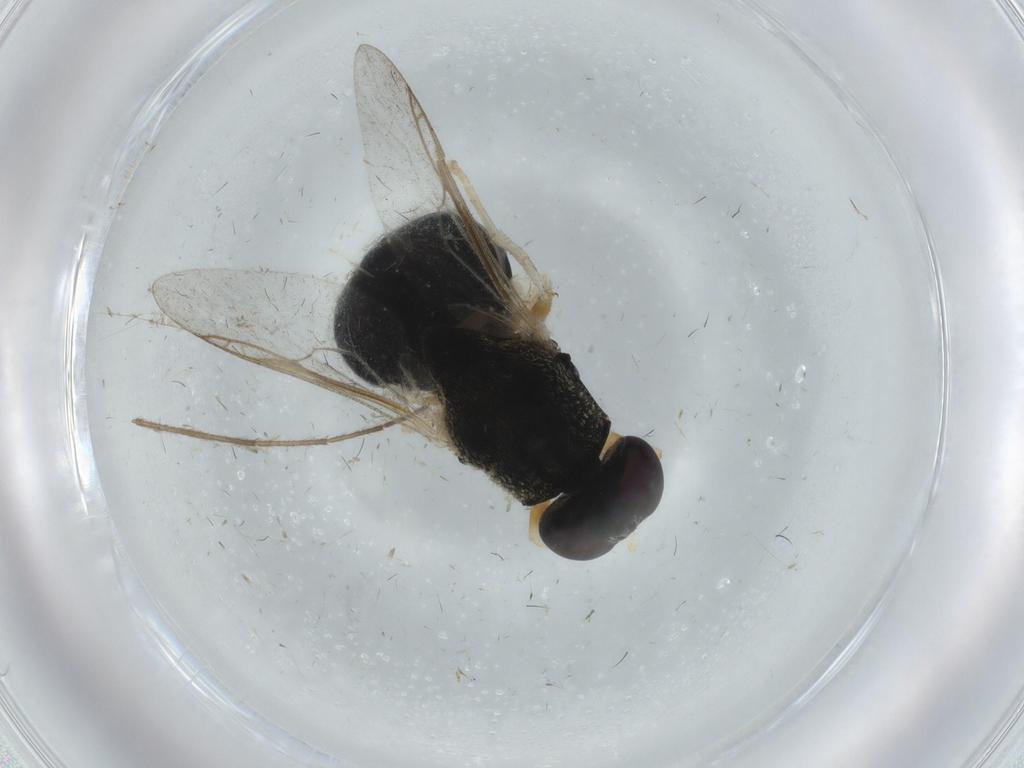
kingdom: Animalia
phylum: Arthropoda
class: Insecta
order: Diptera
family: Stratiomyidae
